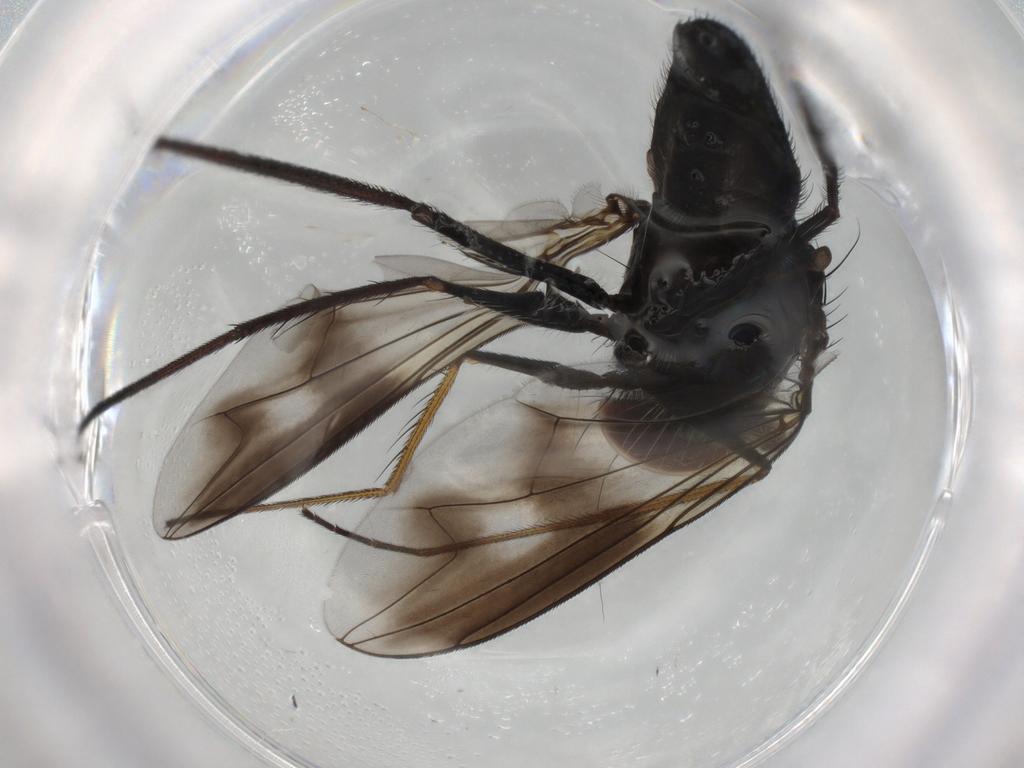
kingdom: Animalia
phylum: Arthropoda
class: Insecta
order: Diptera
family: Dolichopodidae
